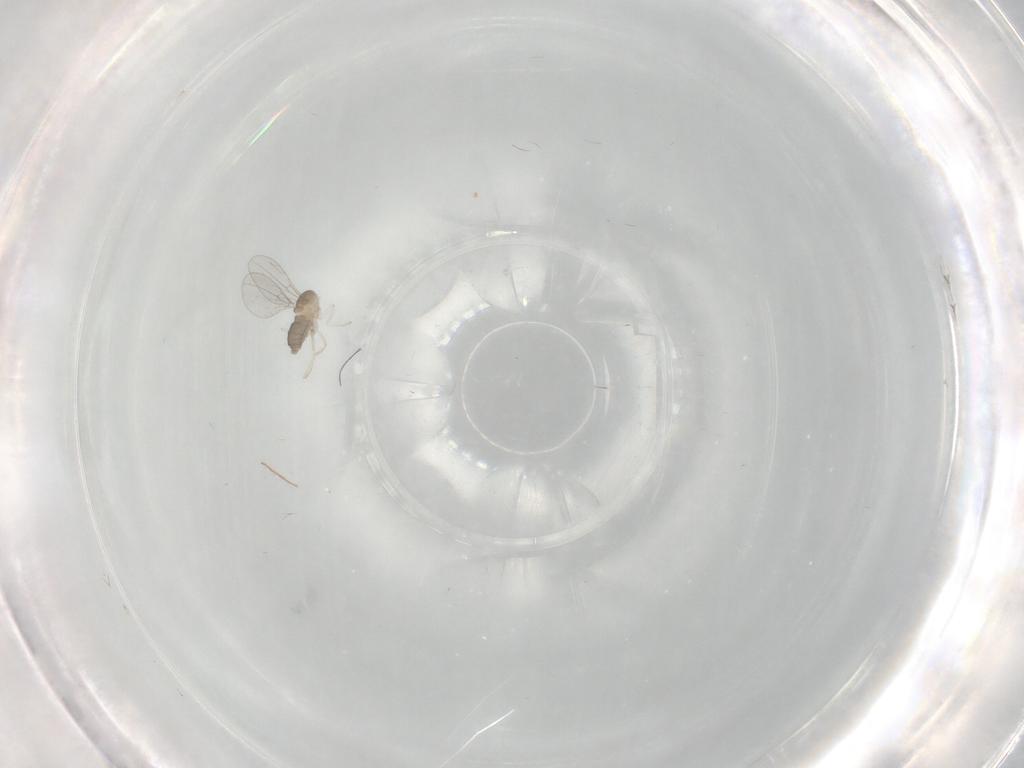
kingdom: Animalia
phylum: Arthropoda
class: Insecta
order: Diptera
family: Cecidomyiidae
